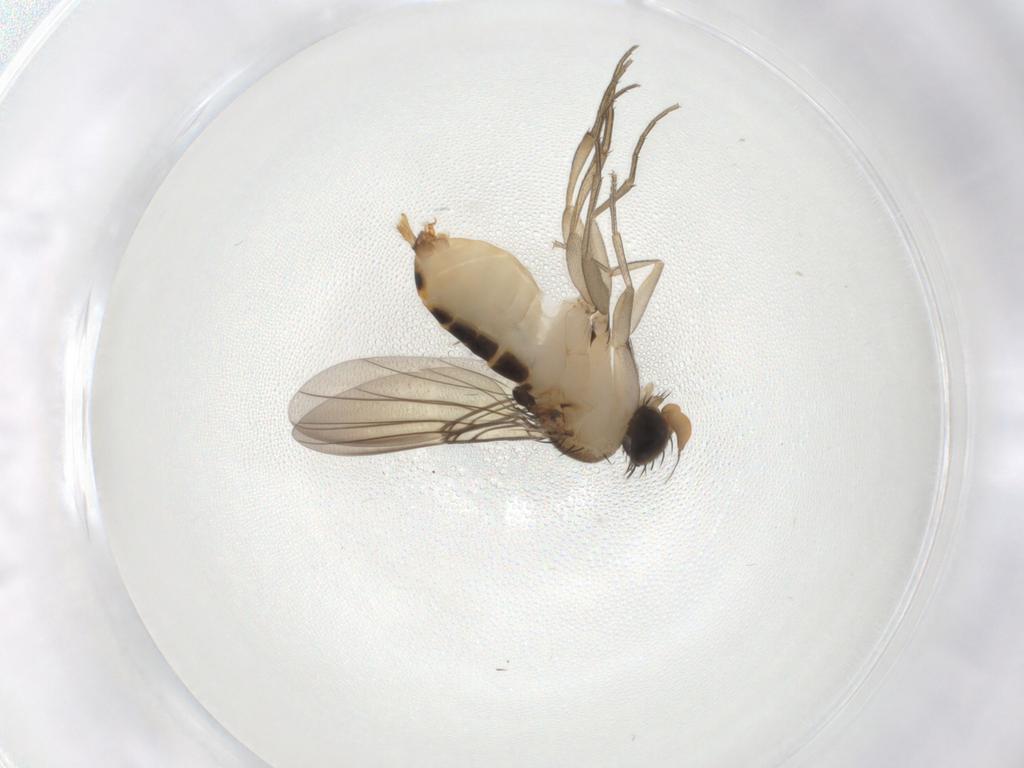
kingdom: Animalia
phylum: Arthropoda
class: Insecta
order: Diptera
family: Phoridae
